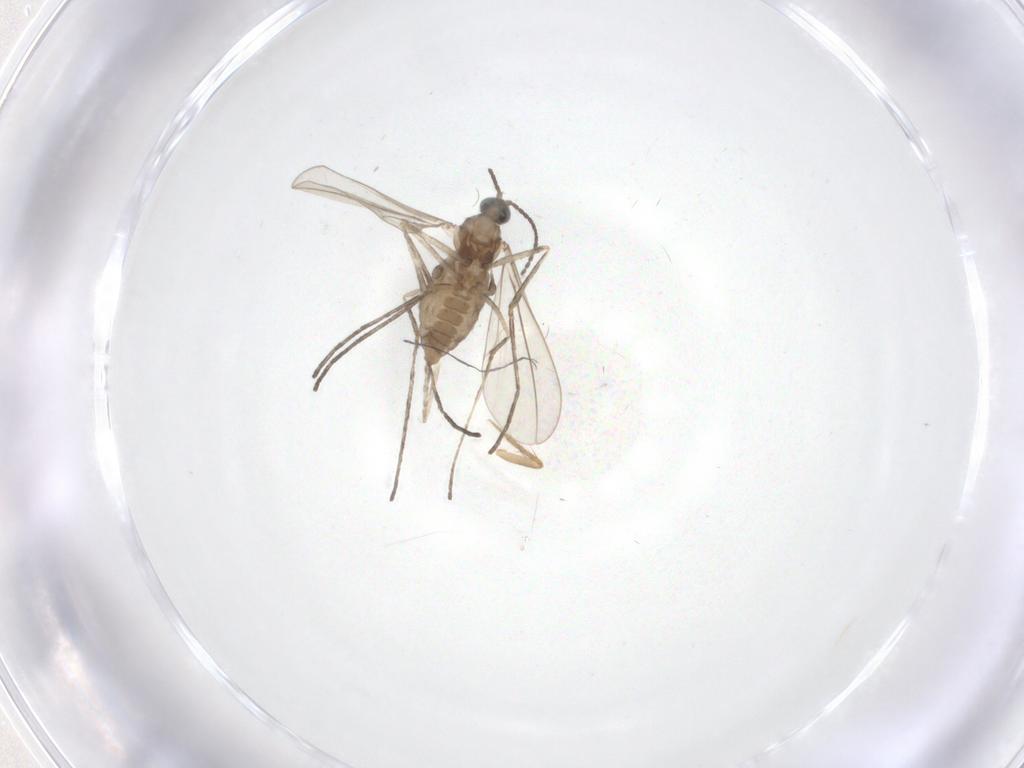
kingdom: Animalia
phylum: Arthropoda
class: Insecta
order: Diptera
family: Cecidomyiidae
